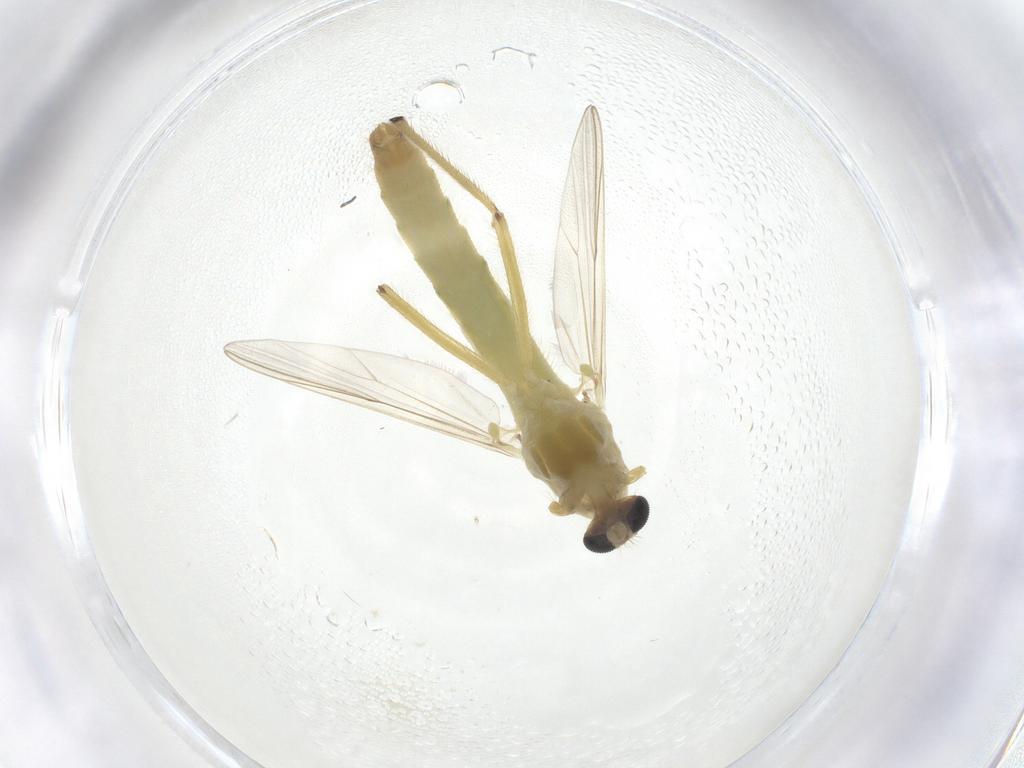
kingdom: Animalia
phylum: Arthropoda
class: Insecta
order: Diptera
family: Chironomidae
